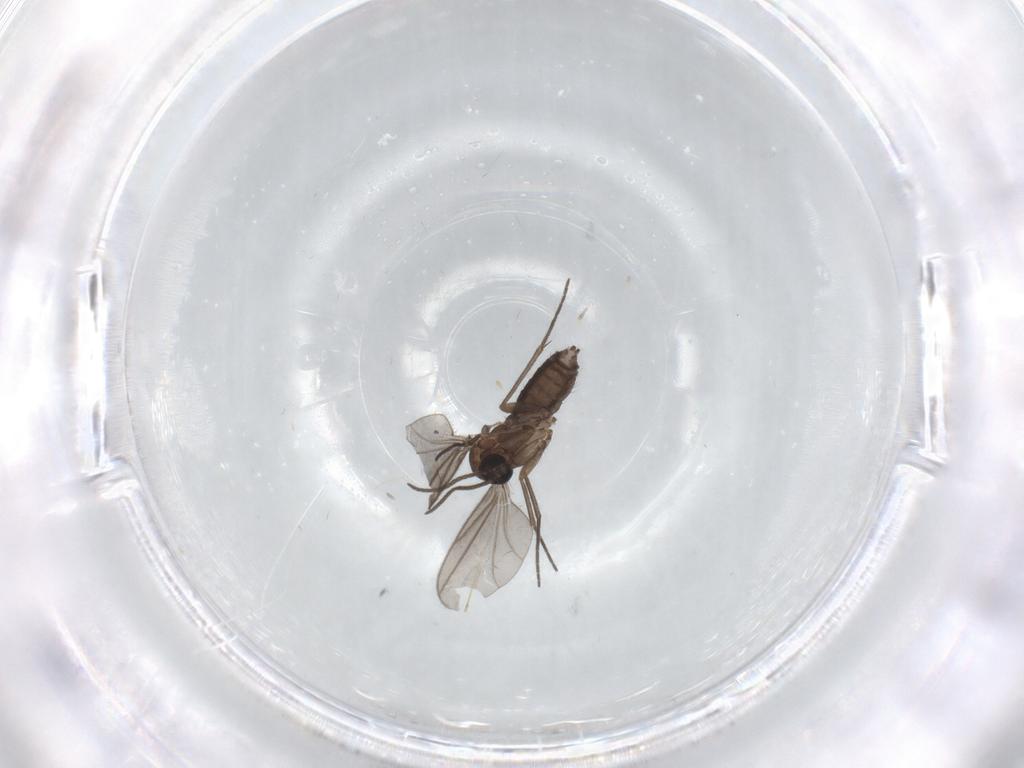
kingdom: Animalia
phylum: Arthropoda
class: Insecta
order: Diptera
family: Sciaridae
